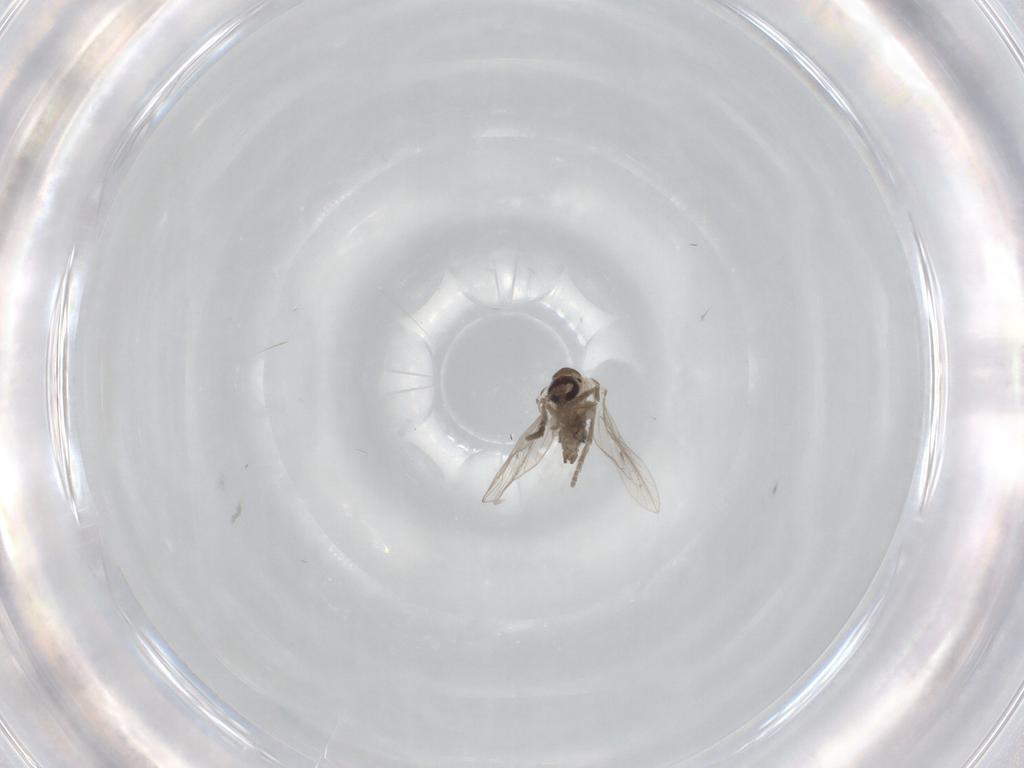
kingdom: Animalia
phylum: Arthropoda
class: Insecta
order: Diptera
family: Psychodidae
